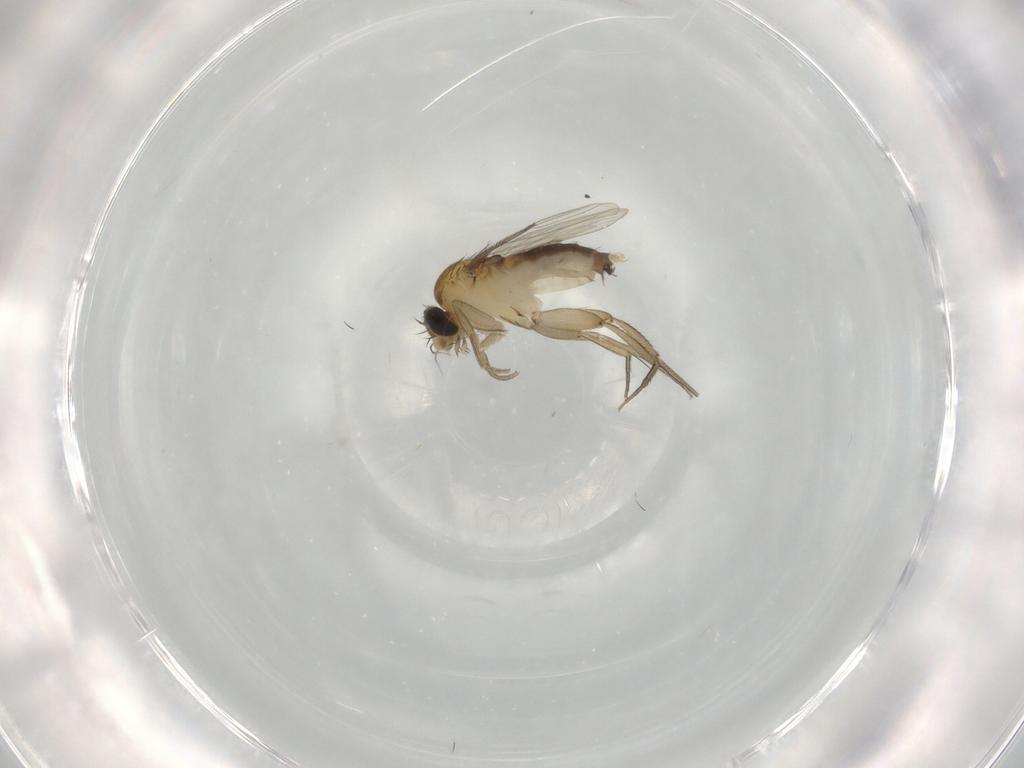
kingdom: Animalia
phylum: Arthropoda
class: Insecta
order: Diptera
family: Phoridae
